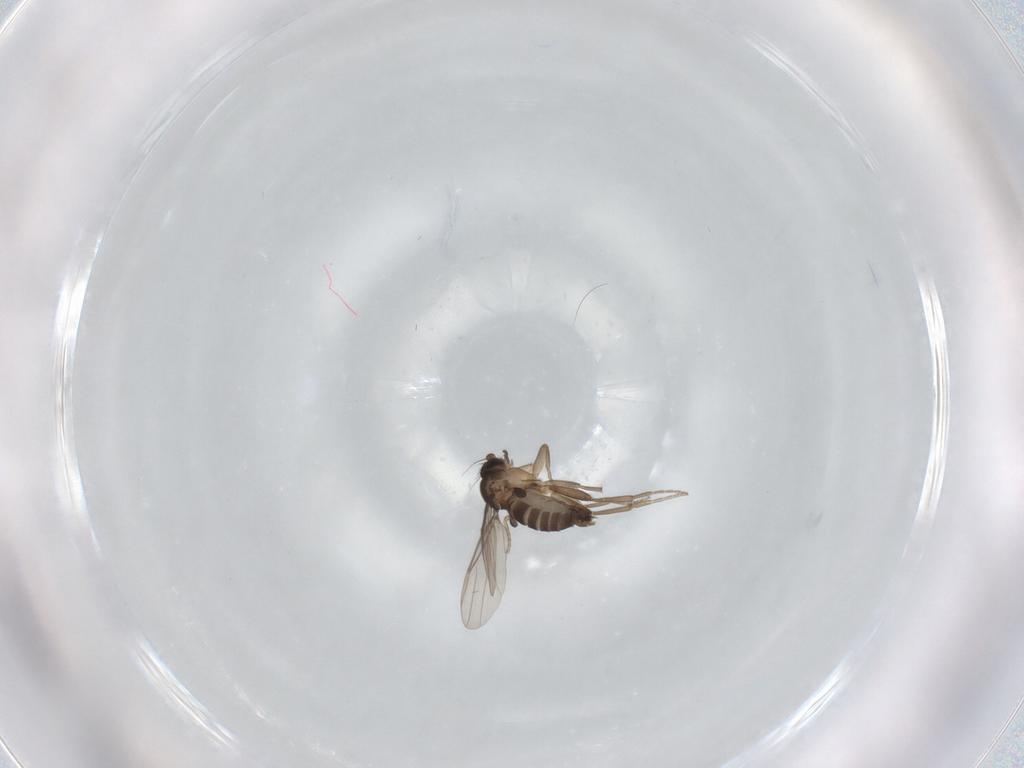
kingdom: Animalia
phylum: Arthropoda
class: Insecta
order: Diptera
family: Phoridae
